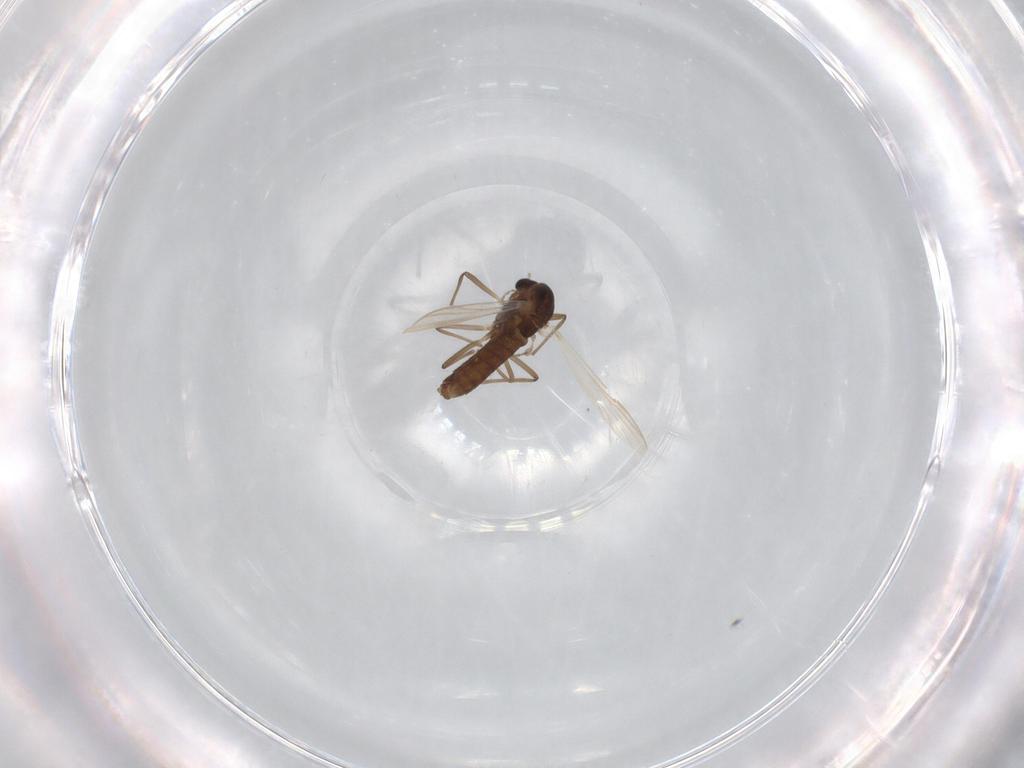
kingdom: Animalia
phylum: Arthropoda
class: Insecta
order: Diptera
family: Chironomidae
